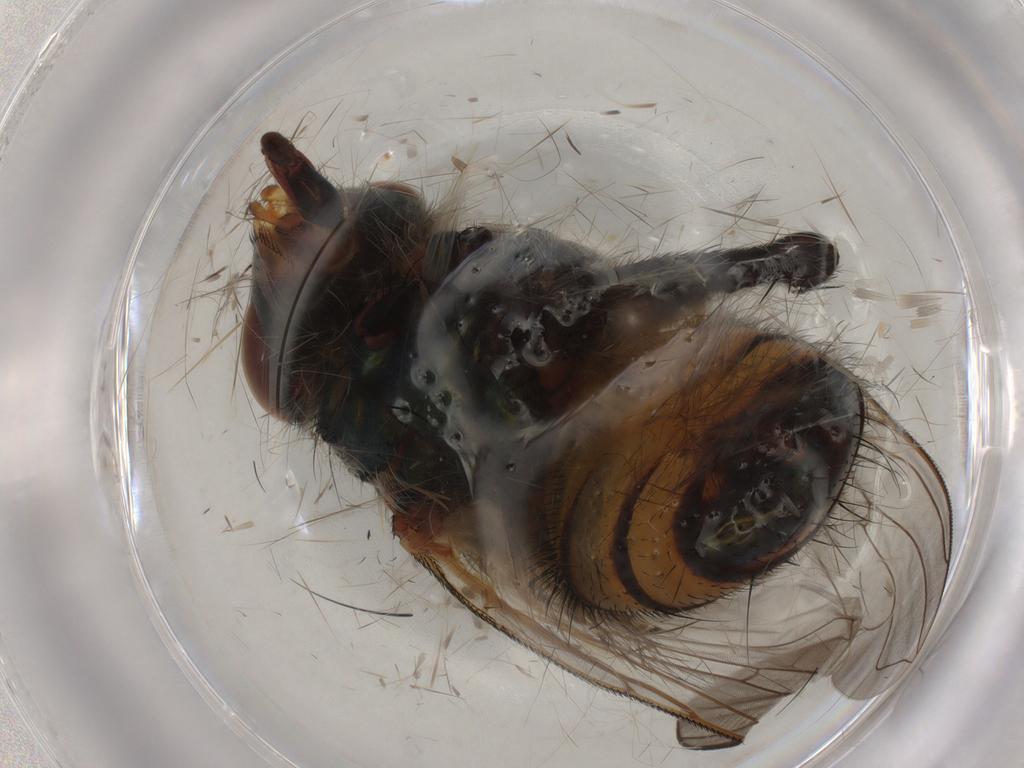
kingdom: Animalia
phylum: Arthropoda
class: Insecta
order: Diptera
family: Calliphoridae
